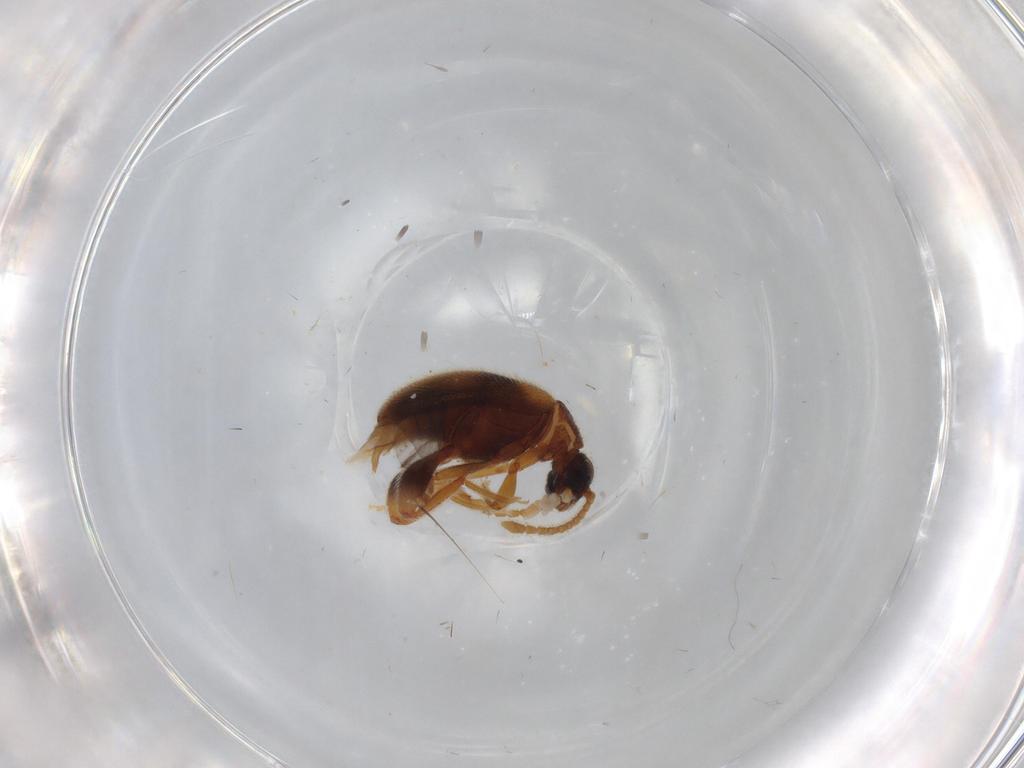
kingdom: Animalia
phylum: Arthropoda
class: Insecta
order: Coleoptera
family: Aderidae
